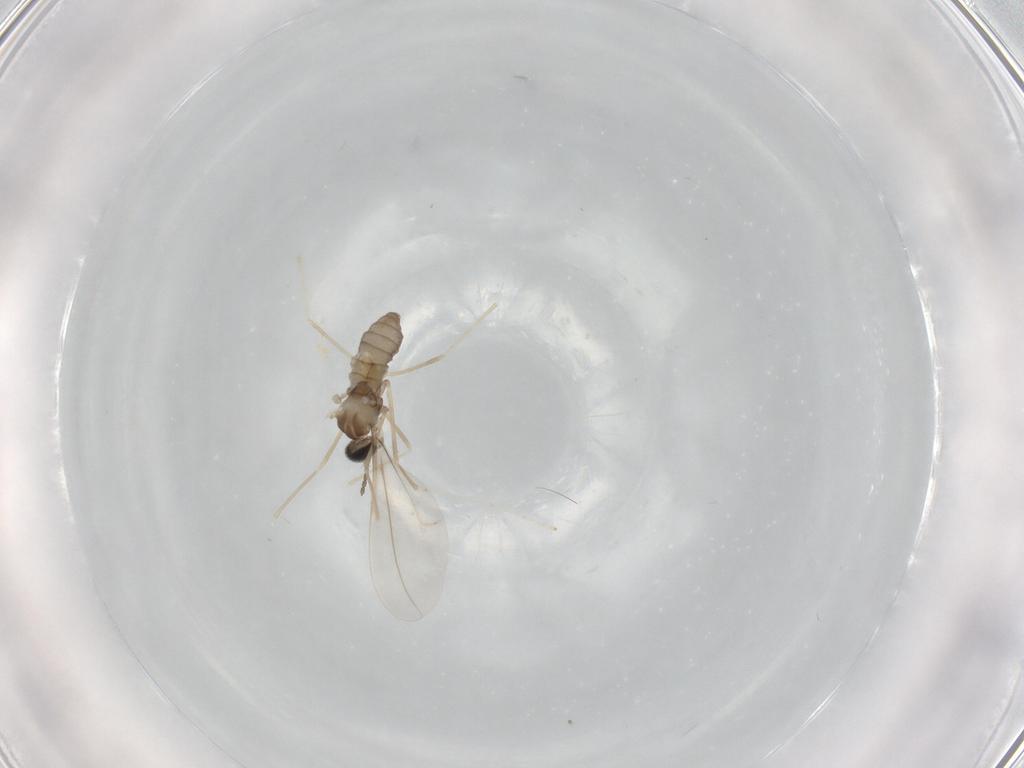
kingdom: Animalia
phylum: Arthropoda
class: Insecta
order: Diptera
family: Cecidomyiidae
